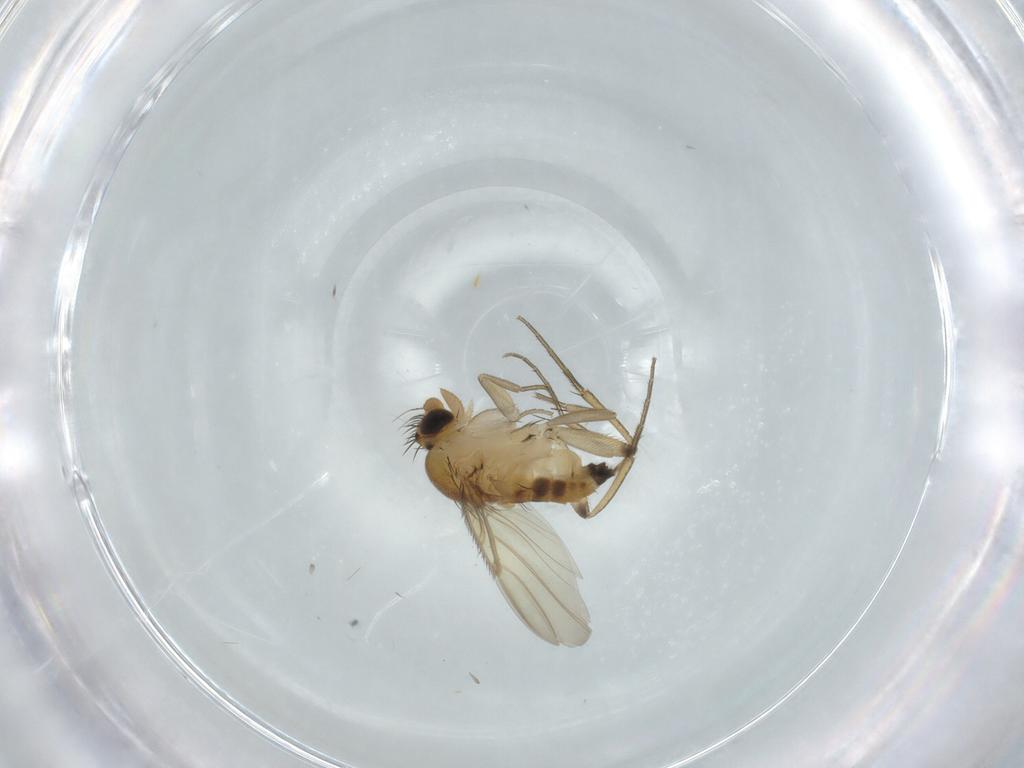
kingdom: Animalia
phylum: Arthropoda
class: Insecta
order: Diptera
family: Phoridae
